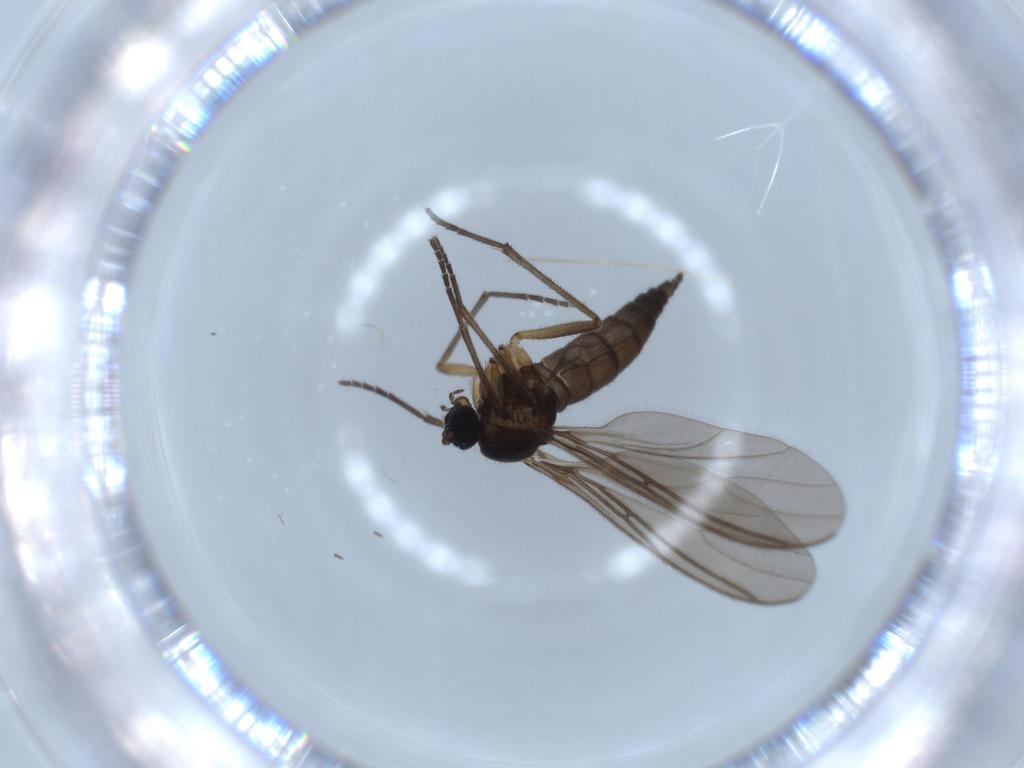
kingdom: Animalia
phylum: Arthropoda
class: Insecta
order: Diptera
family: Sciaridae
